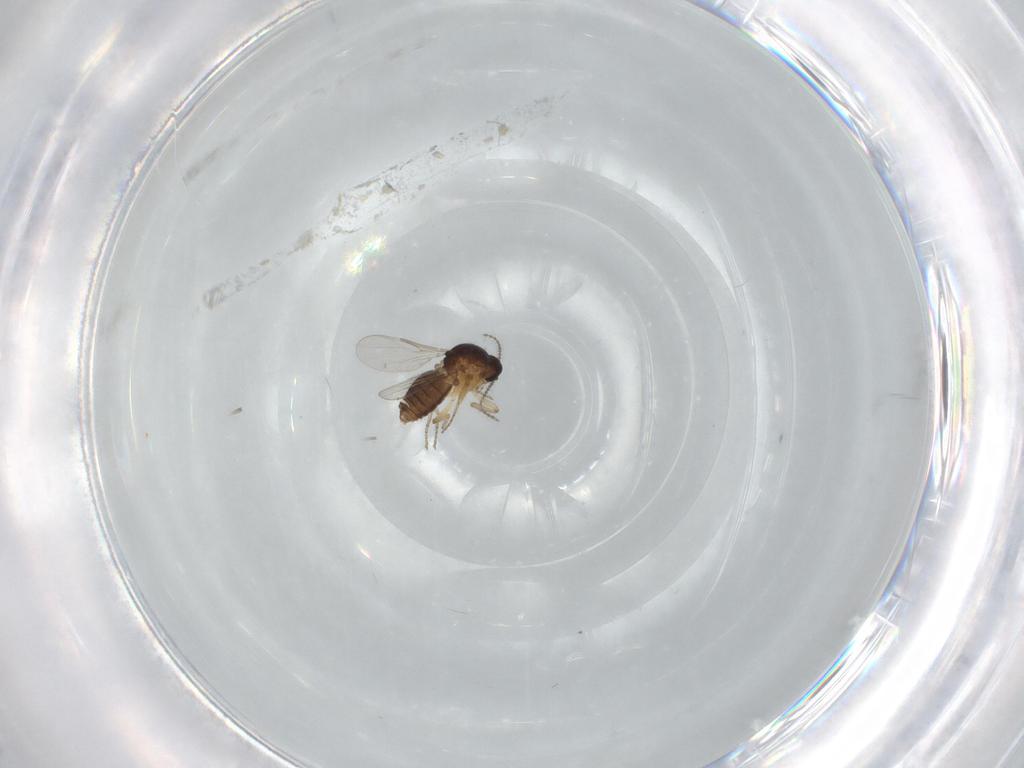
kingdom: Animalia
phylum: Arthropoda
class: Insecta
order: Diptera
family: Ceratopogonidae
